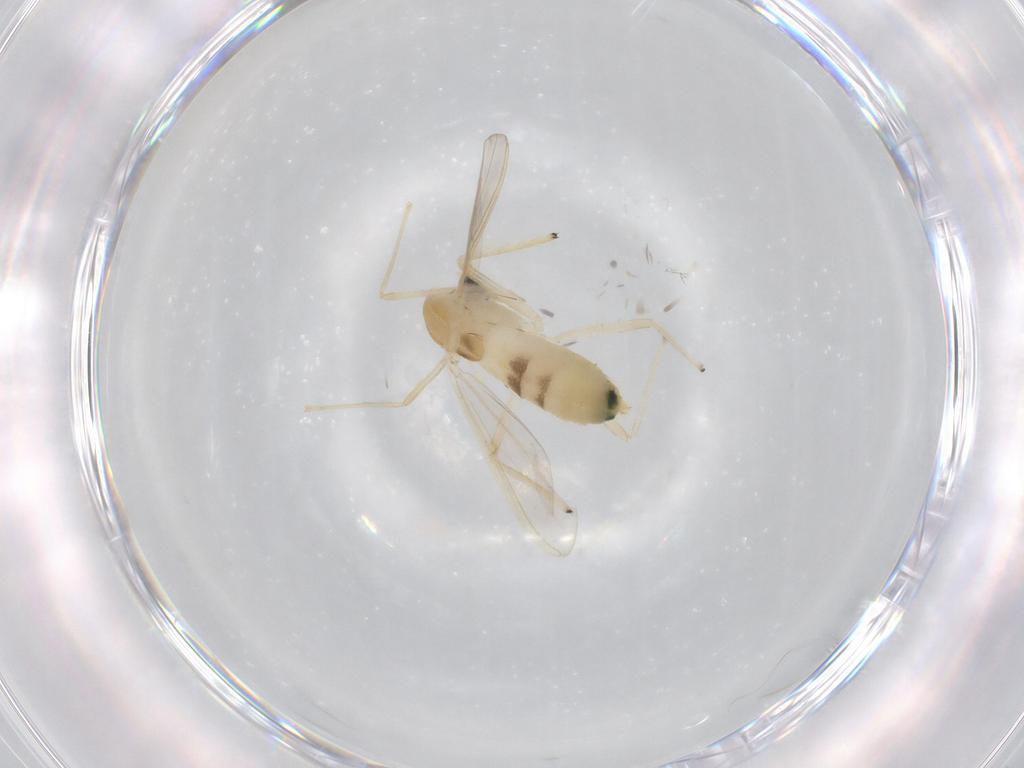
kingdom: Animalia
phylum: Arthropoda
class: Insecta
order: Diptera
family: Chironomidae
